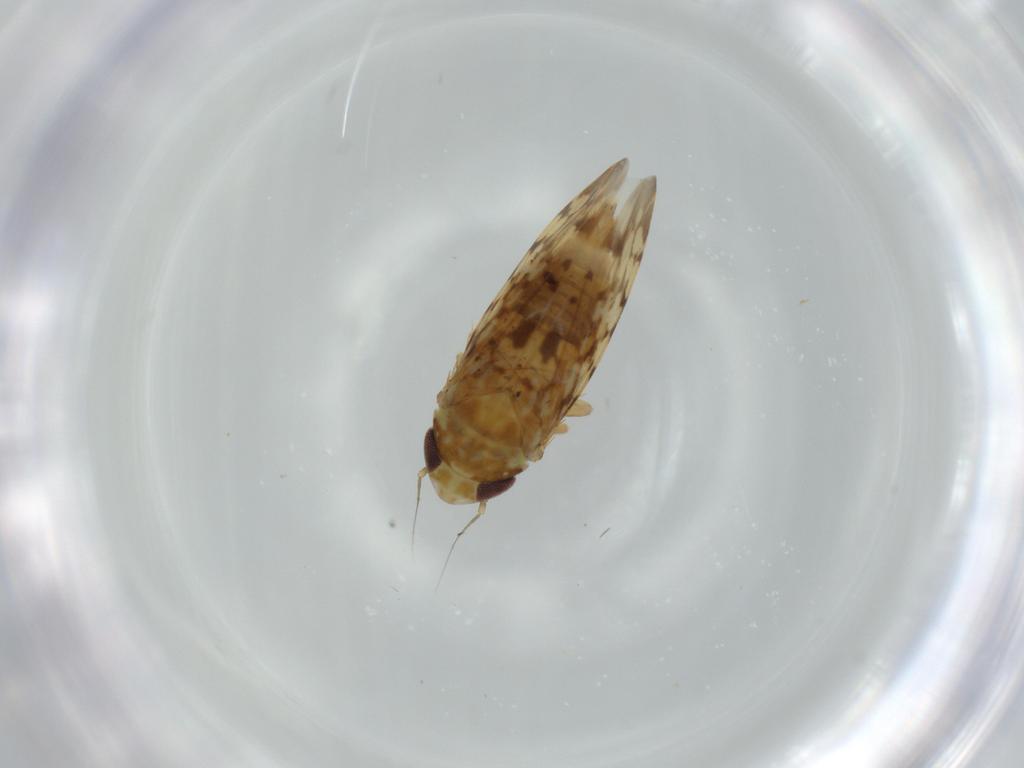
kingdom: Animalia
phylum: Arthropoda
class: Insecta
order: Hemiptera
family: Cicadellidae
